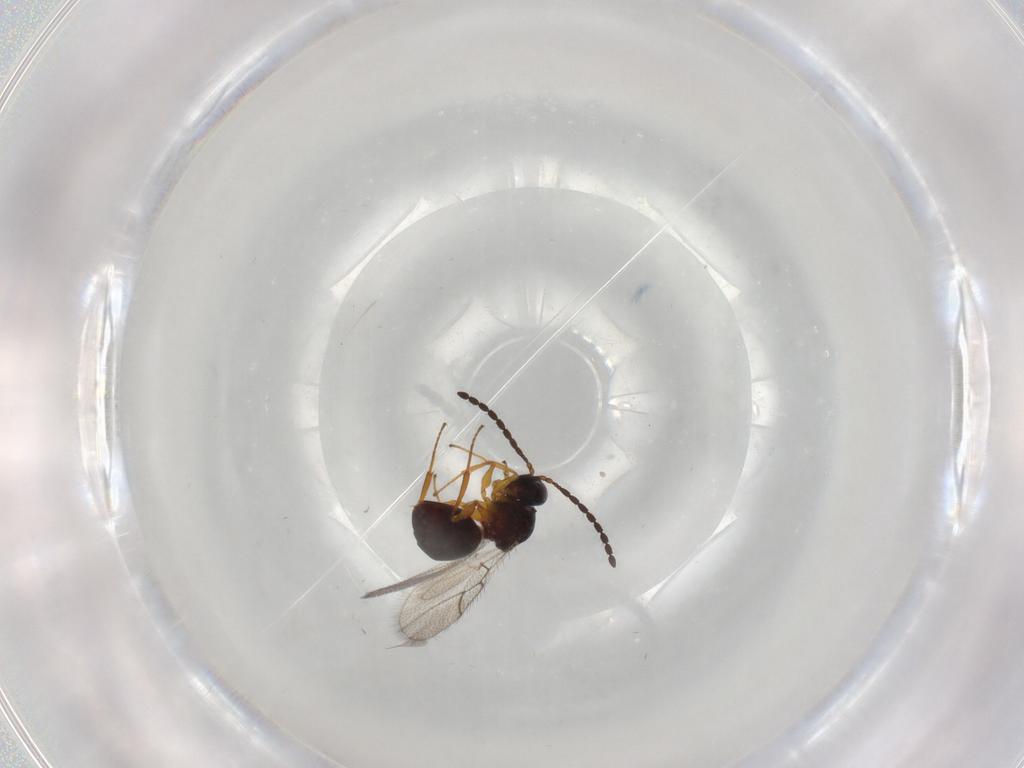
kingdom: Animalia
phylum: Arthropoda
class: Insecta
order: Hymenoptera
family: Figitidae
